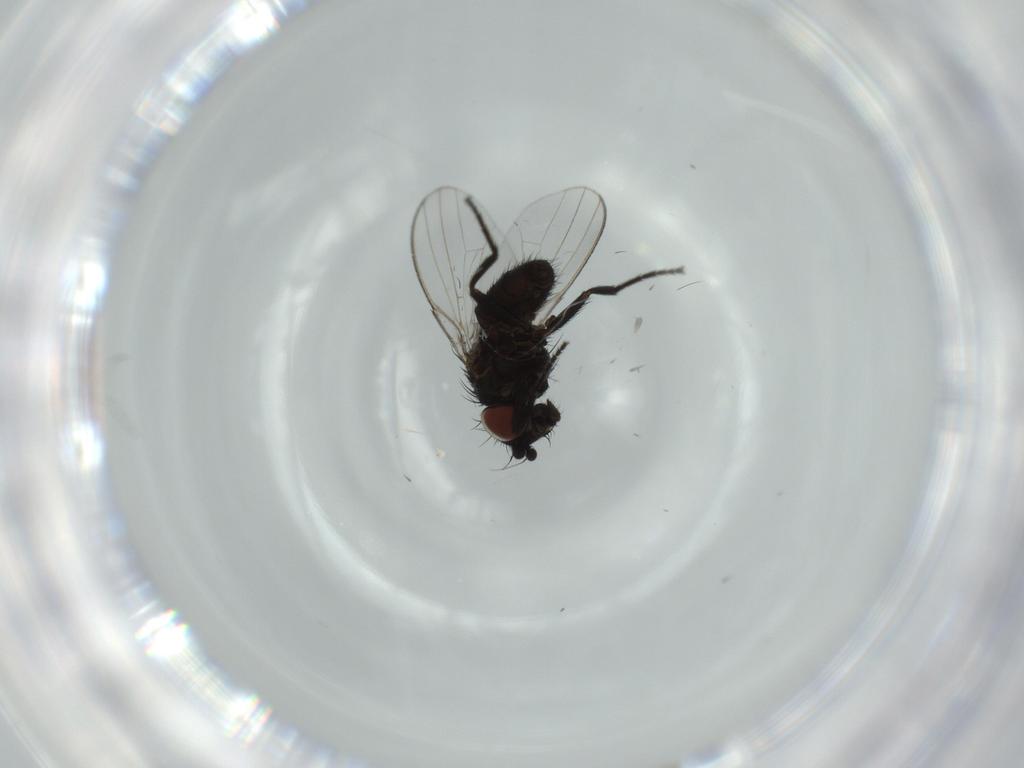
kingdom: Animalia
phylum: Arthropoda
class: Insecta
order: Diptera
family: Milichiidae
